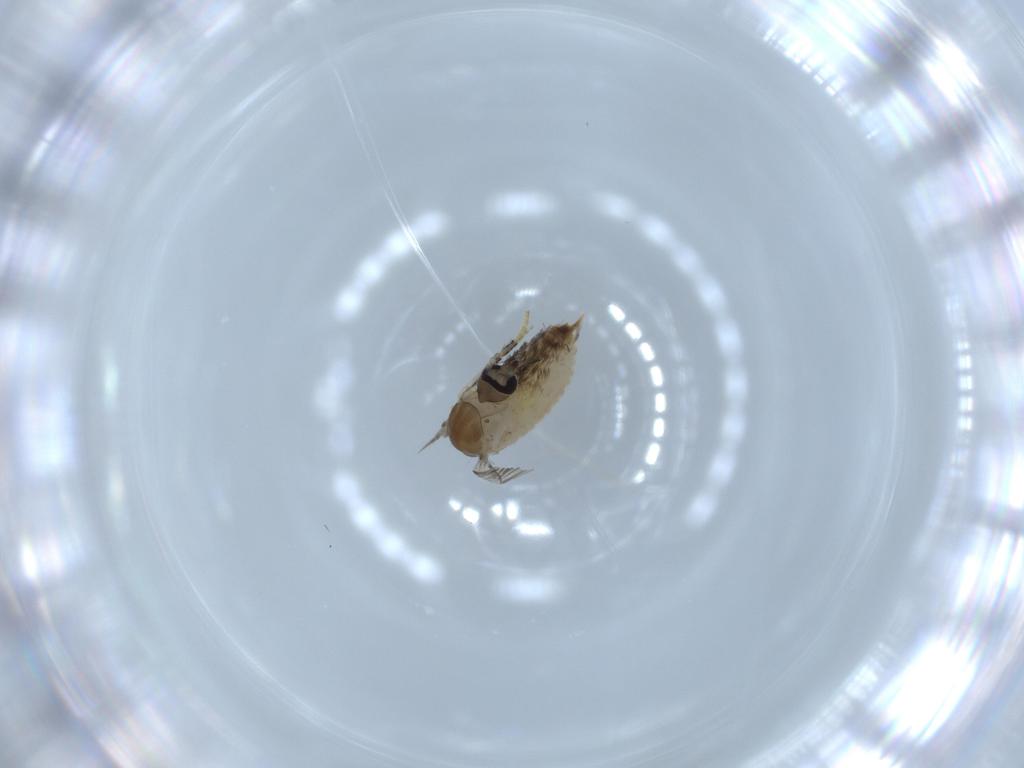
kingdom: Animalia
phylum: Arthropoda
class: Insecta
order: Diptera
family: Psychodidae
